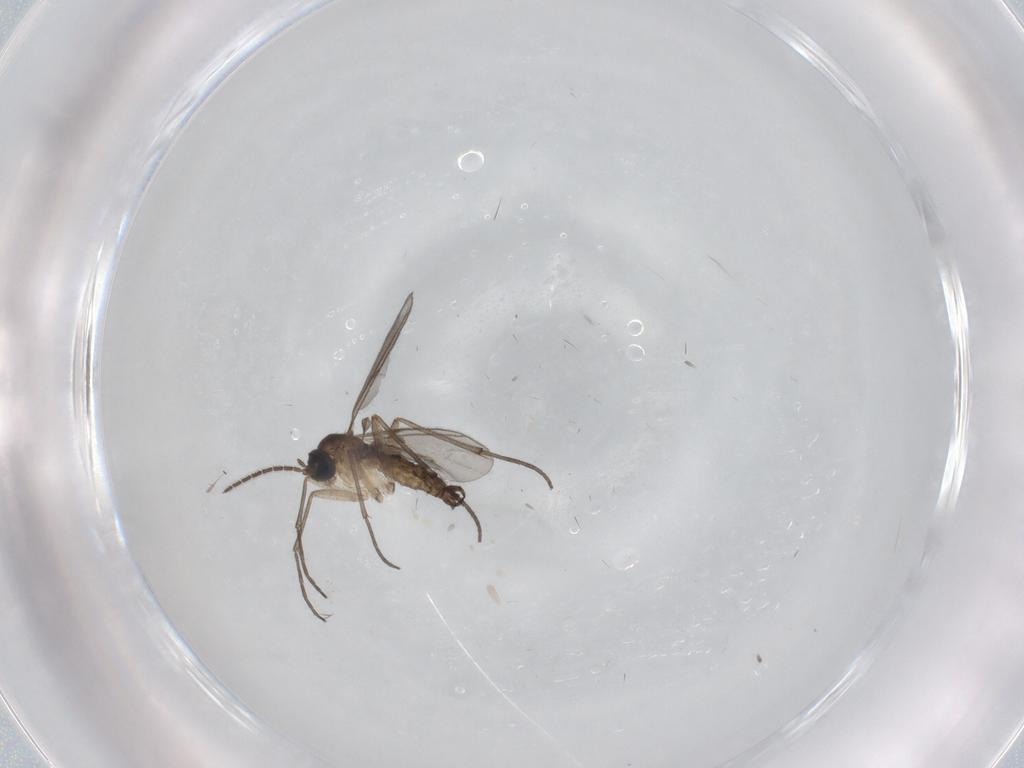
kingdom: Animalia
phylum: Arthropoda
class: Insecta
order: Diptera
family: Sciaridae
